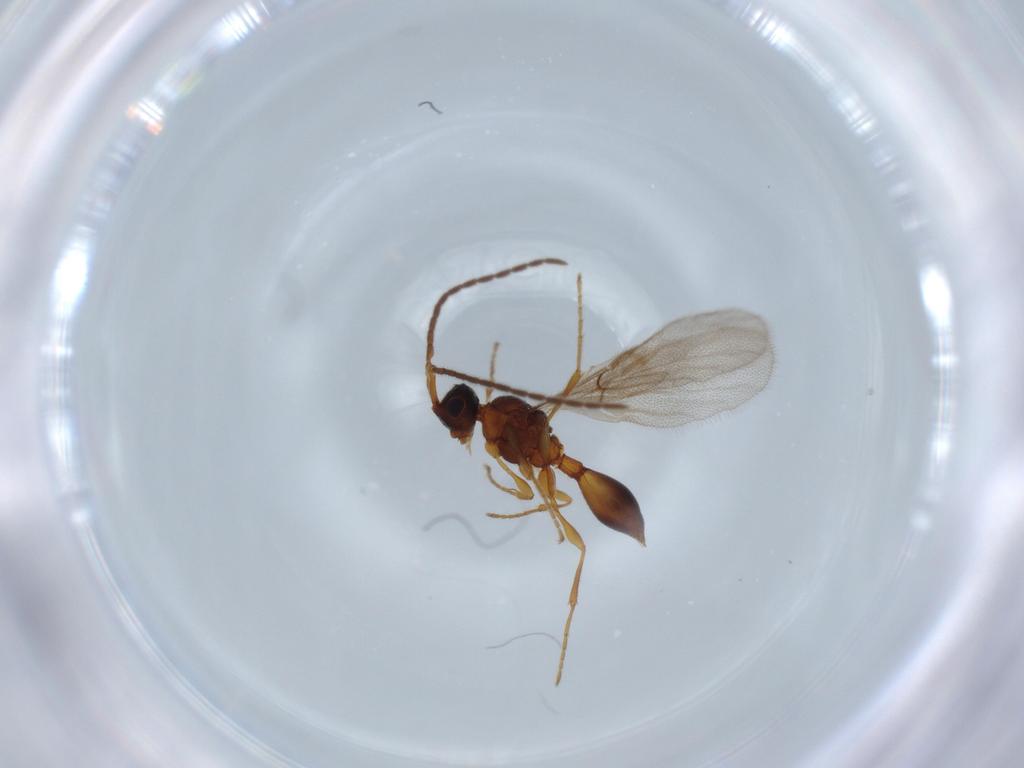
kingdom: Animalia
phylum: Arthropoda
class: Insecta
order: Hymenoptera
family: Diapriidae
